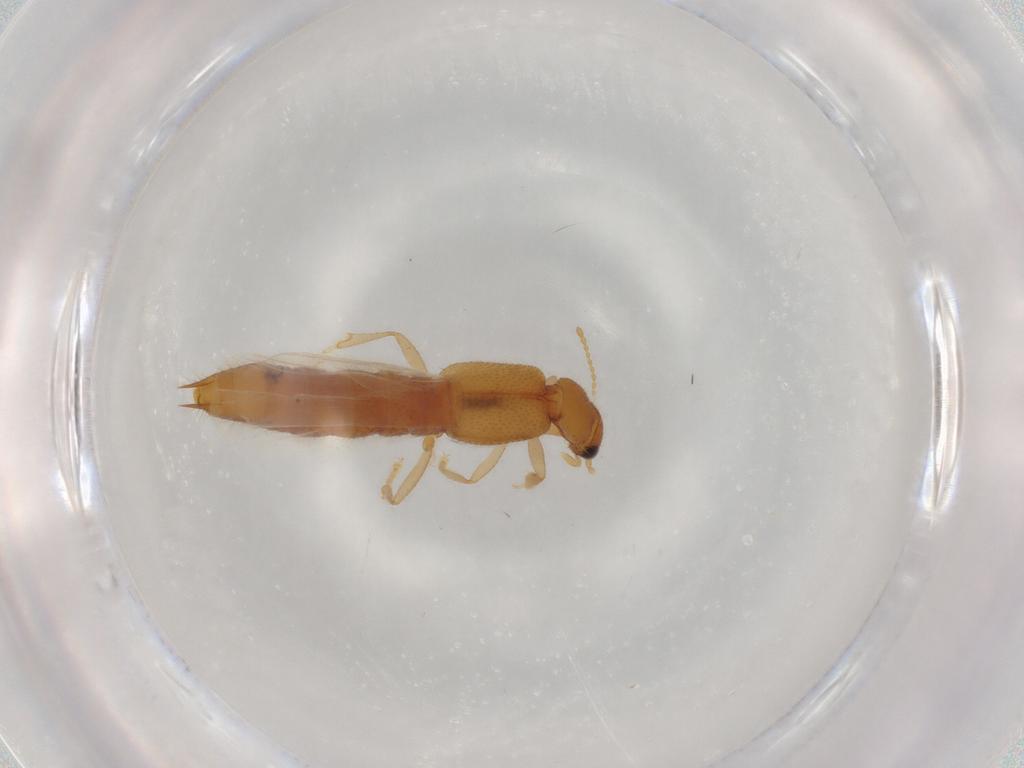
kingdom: Animalia
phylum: Arthropoda
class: Insecta
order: Coleoptera
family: Staphylinidae
